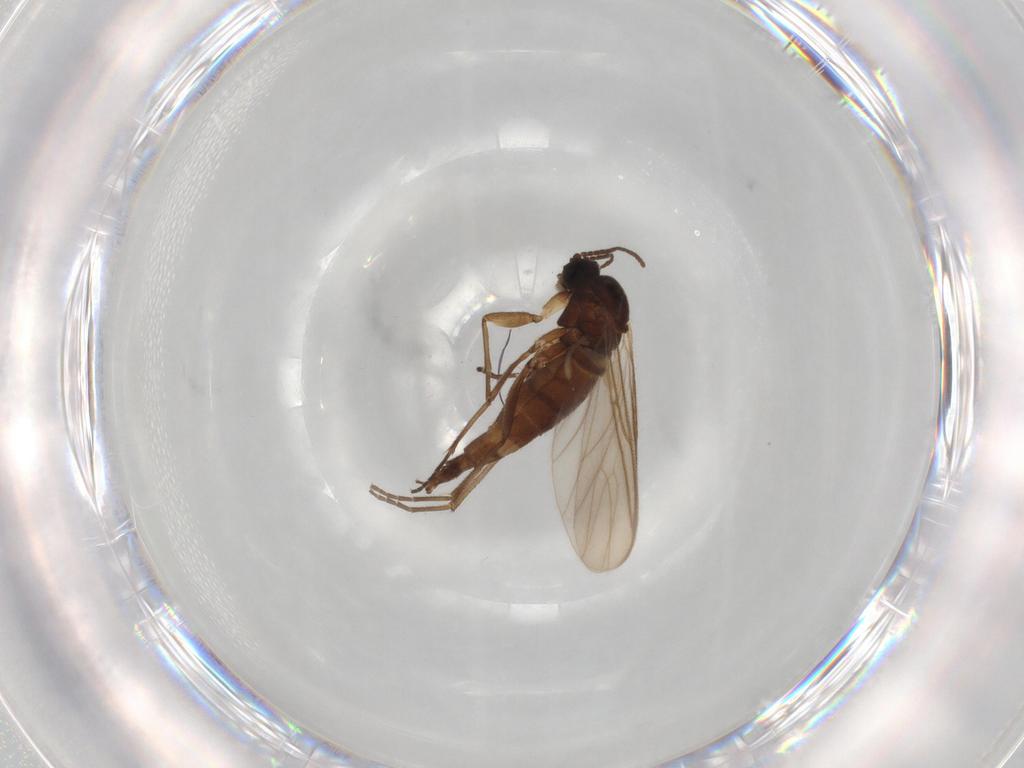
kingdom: Animalia
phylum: Arthropoda
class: Insecta
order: Diptera
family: Sciaridae
